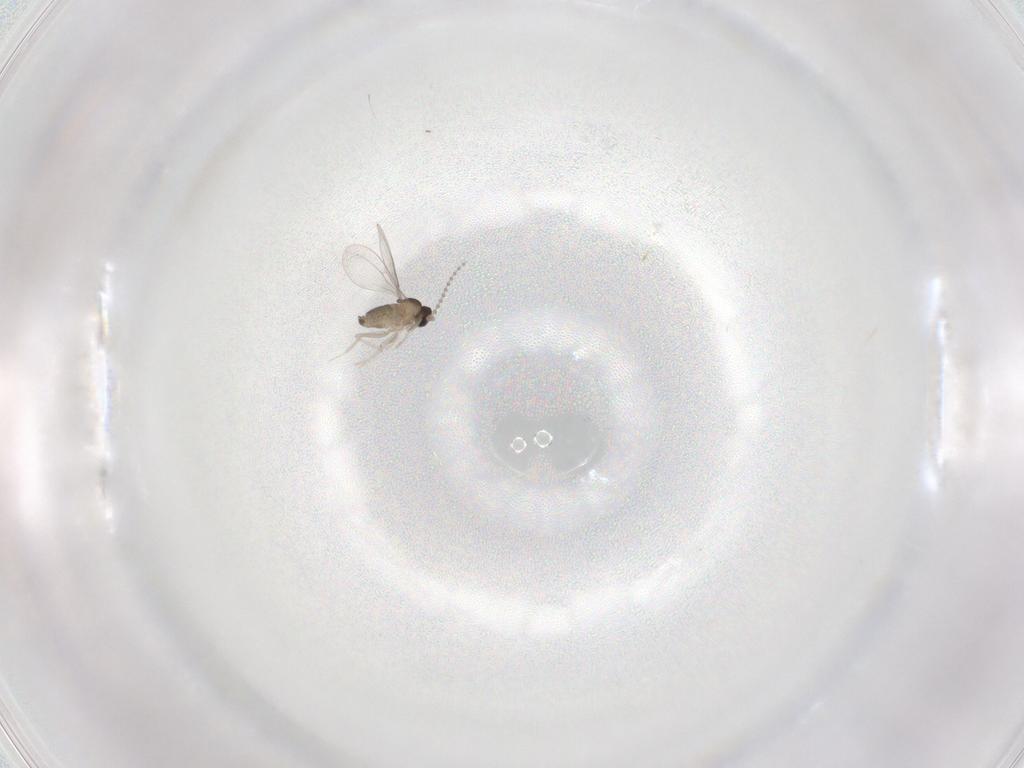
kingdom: Animalia
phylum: Arthropoda
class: Insecta
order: Diptera
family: Cecidomyiidae
